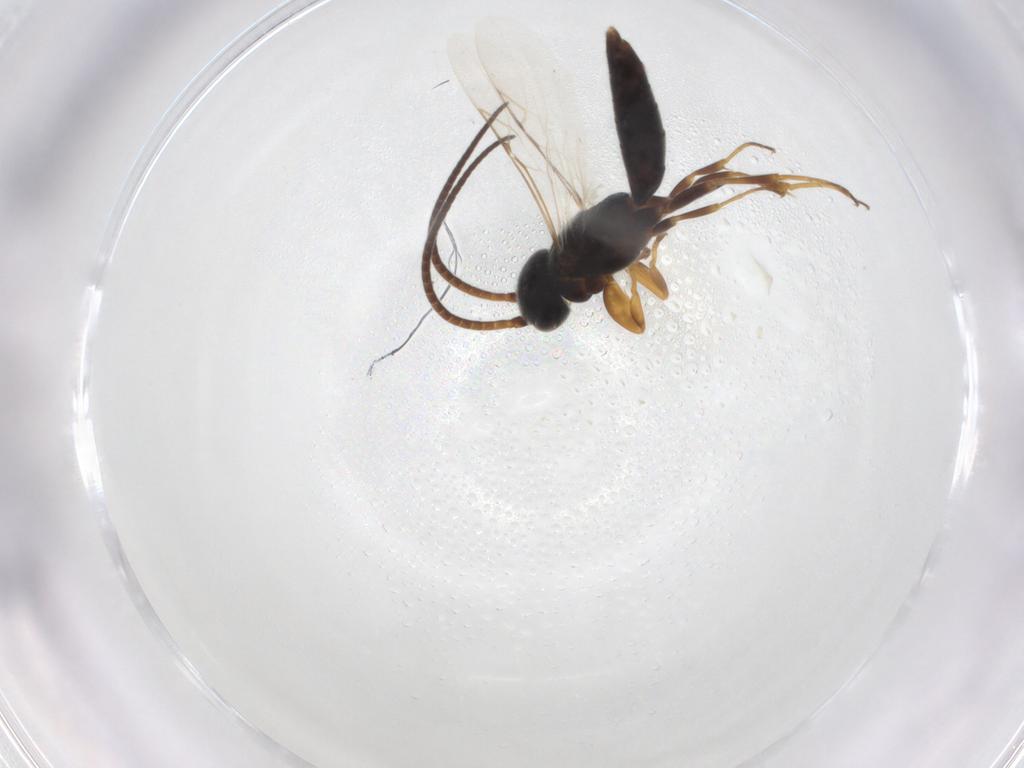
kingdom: Animalia
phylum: Arthropoda
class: Insecta
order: Hymenoptera
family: Sclerogibbidae
